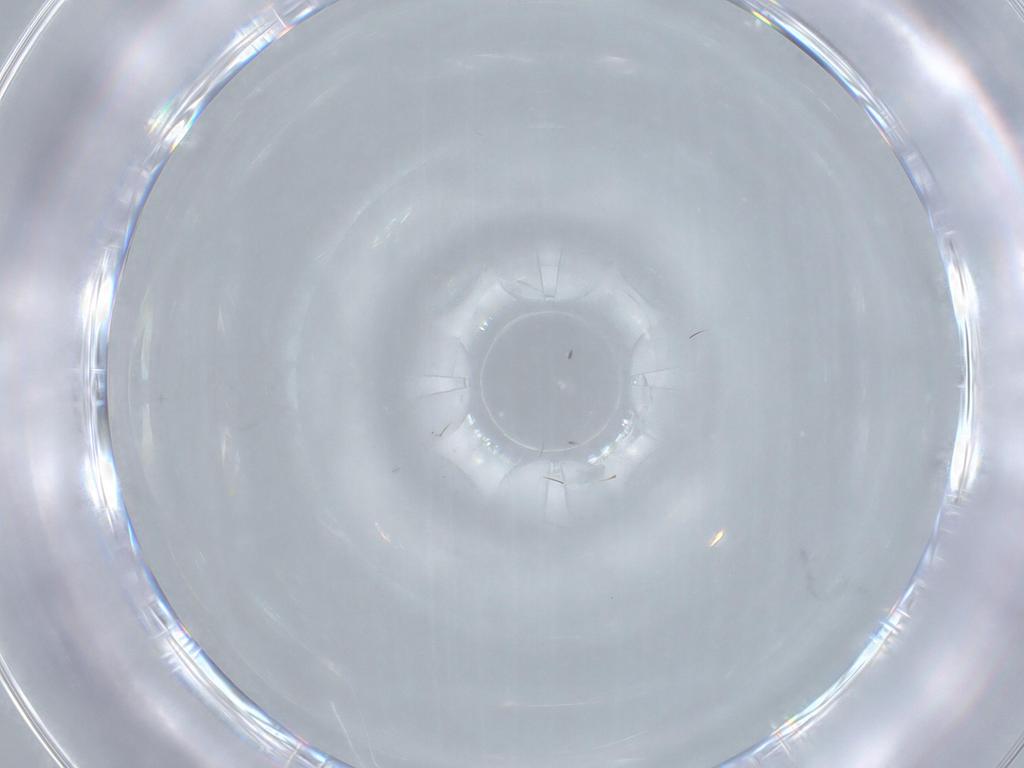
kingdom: Animalia
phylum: Arthropoda
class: Insecta
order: Diptera
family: Cecidomyiidae
